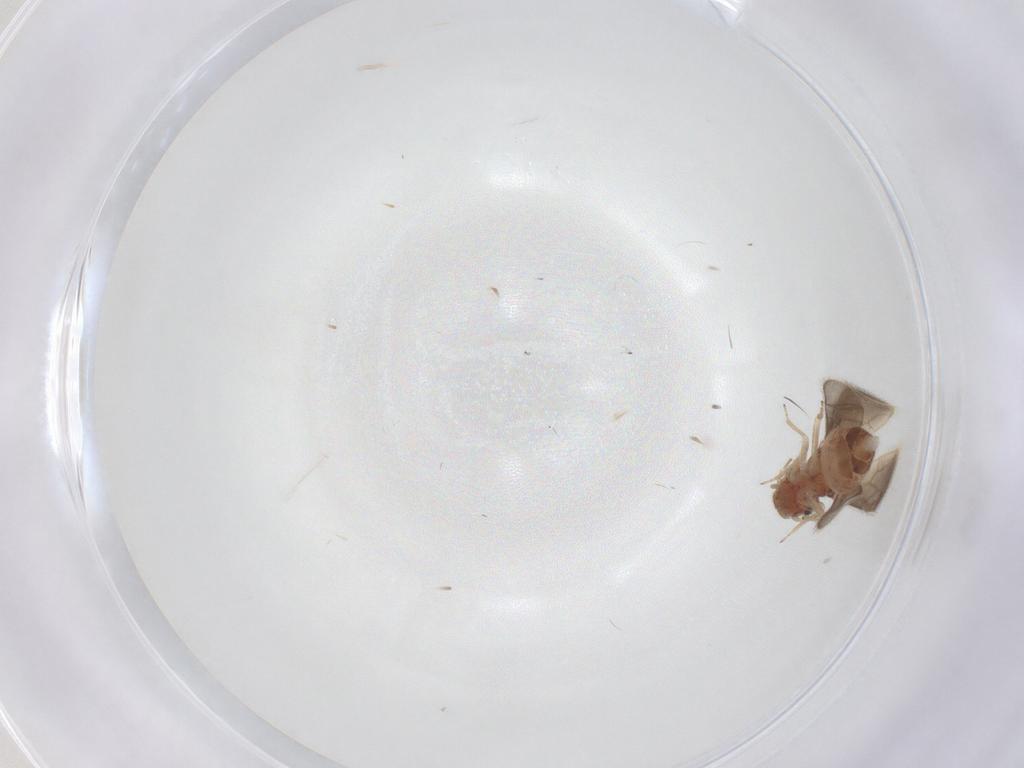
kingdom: Animalia
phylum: Arthropoda
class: Insecta
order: Psocodea
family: Archipsocidae
